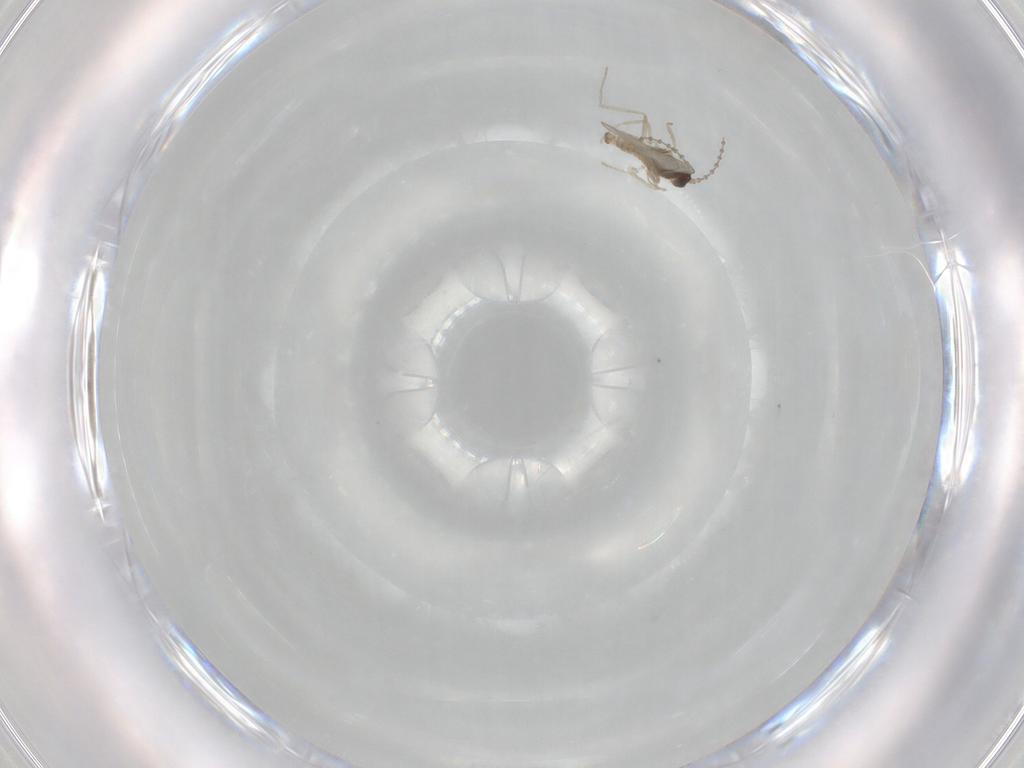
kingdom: Animalia
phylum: Arthropoda
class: Insecta
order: Diptera
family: Cecidomyiidae
